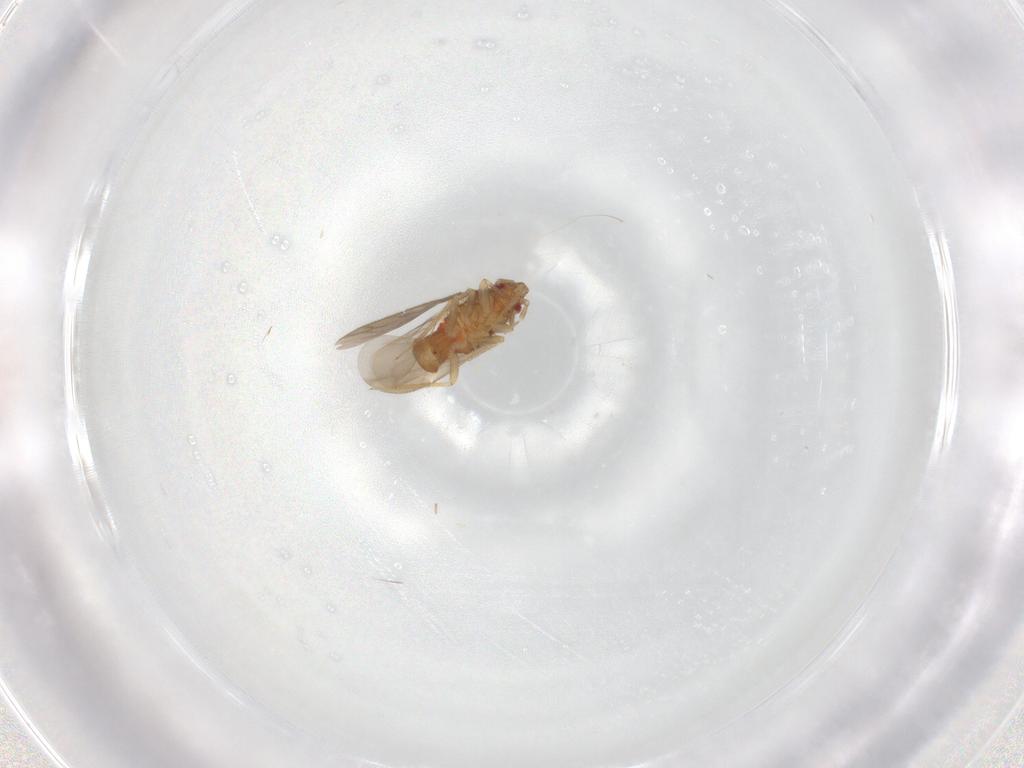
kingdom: Animalia
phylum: Arthropoda
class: Insecta
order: Hemiptera
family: Ceratocombidae
